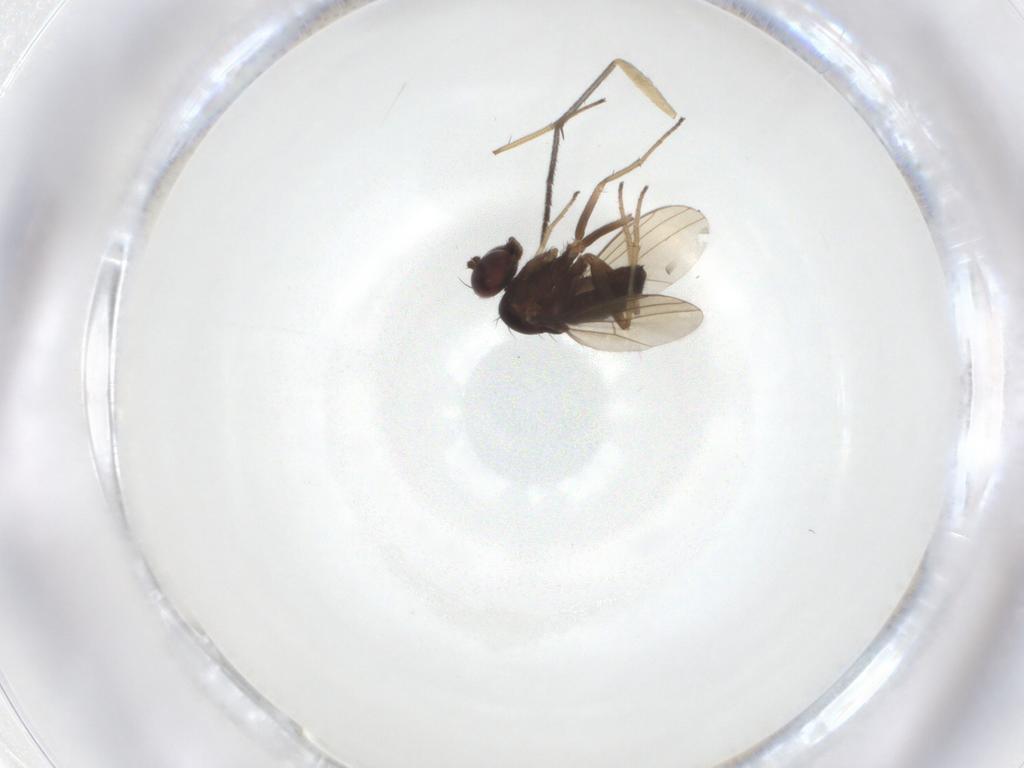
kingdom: Animalia
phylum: Arthropoda
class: Insecta
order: Diptera
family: Dolichopodidae
